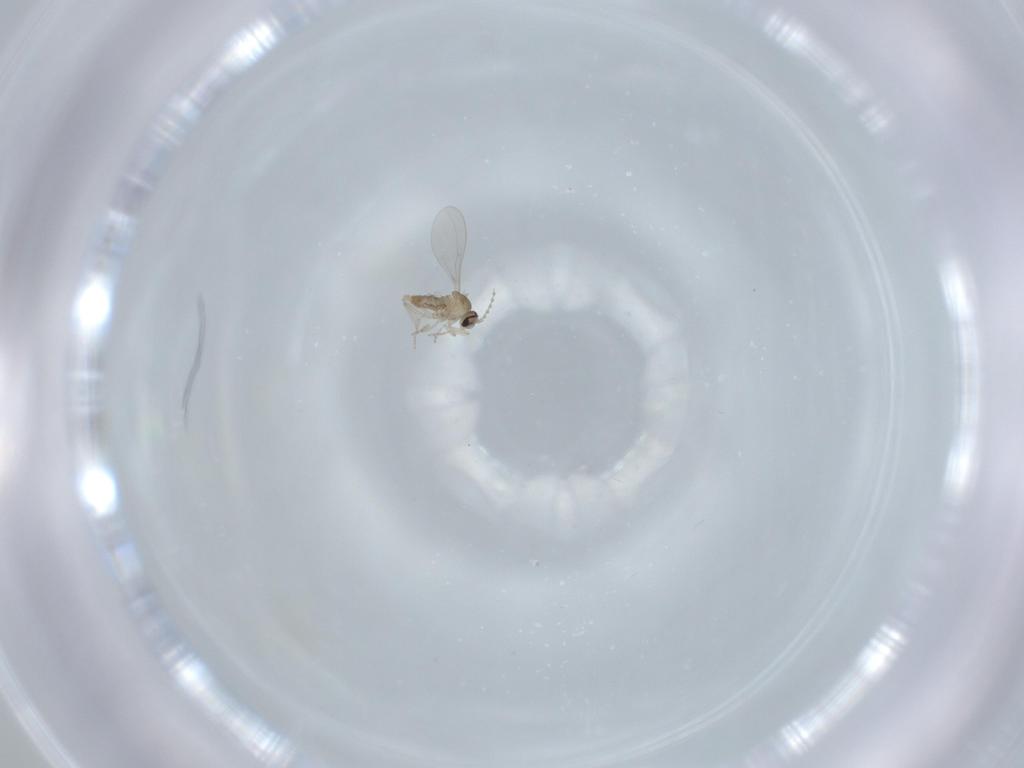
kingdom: Animalia
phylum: Arthropoda
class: Insecta
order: Diptera
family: Cecidomyiidae
